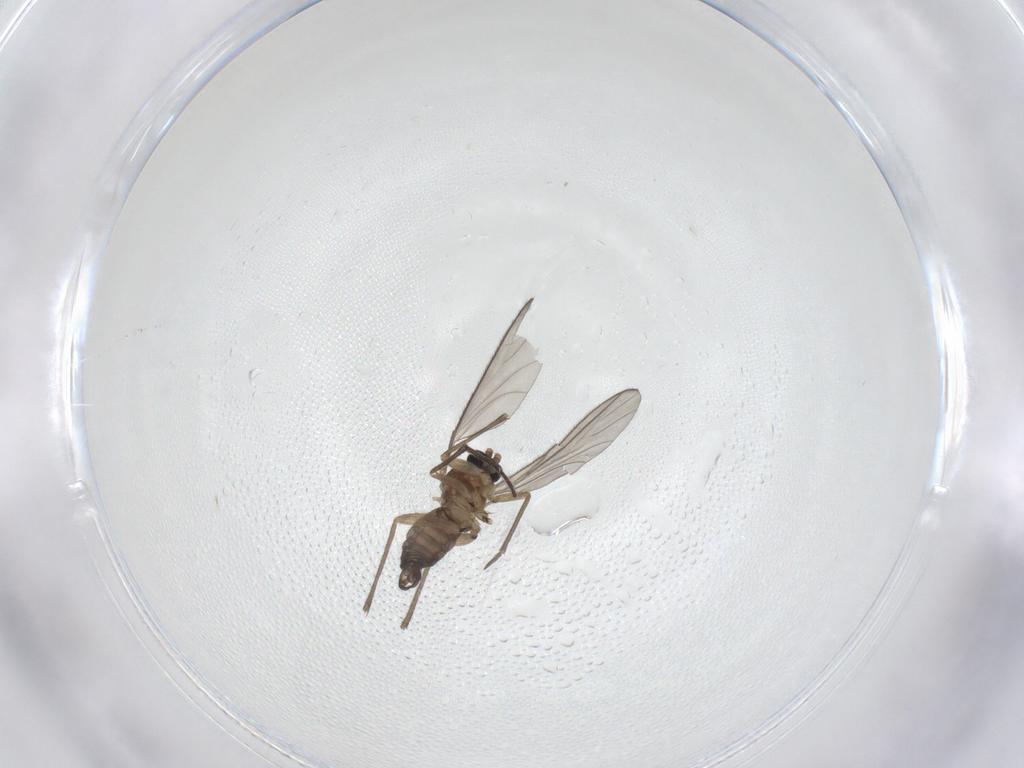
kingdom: Animalia
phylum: Arthropoda
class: Insecta
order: Diptera
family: Sciaridae
